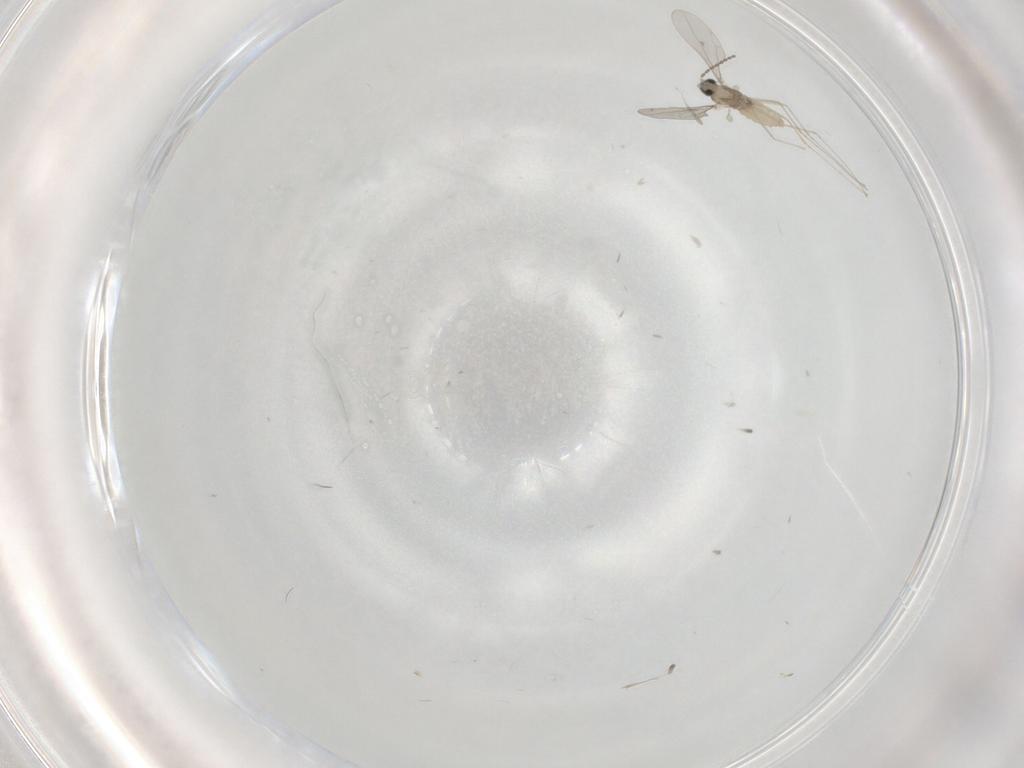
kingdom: Animalia
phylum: Arthropoda
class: Insecta
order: Diptera
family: Cecidomyiidae
